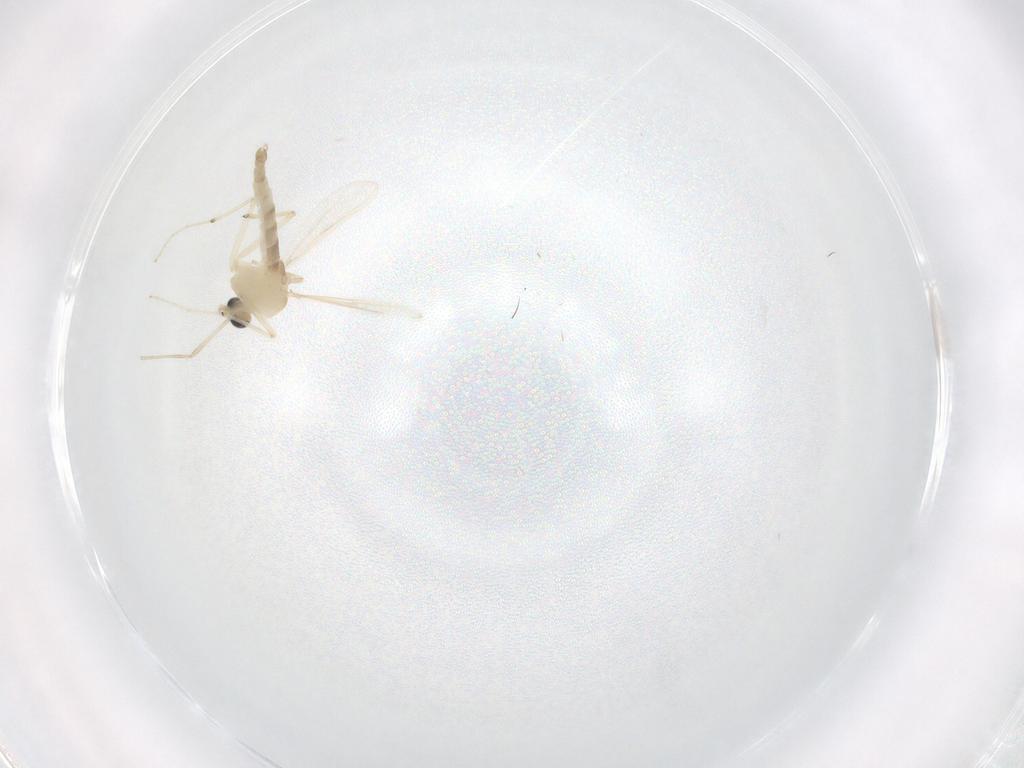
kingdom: Animalia
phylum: Arthropoda
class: Insecta
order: Diptera
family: Chironomidae
